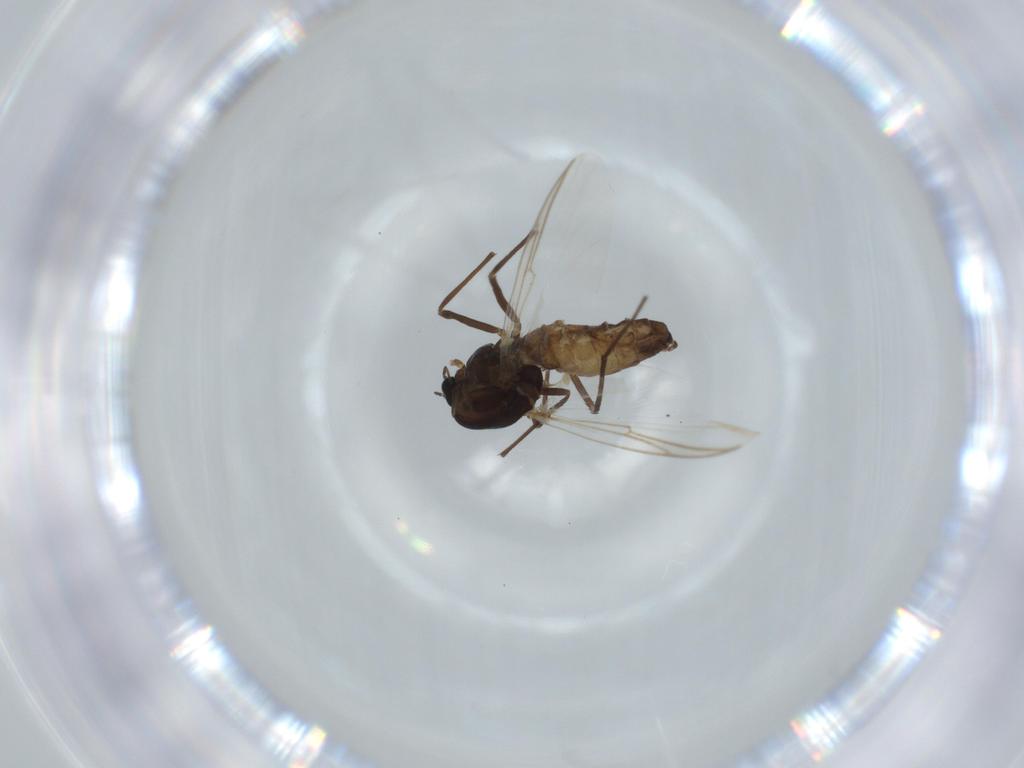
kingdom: Animalia
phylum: Arthropoda
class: Insecta
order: Diptera
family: Chironomidae
